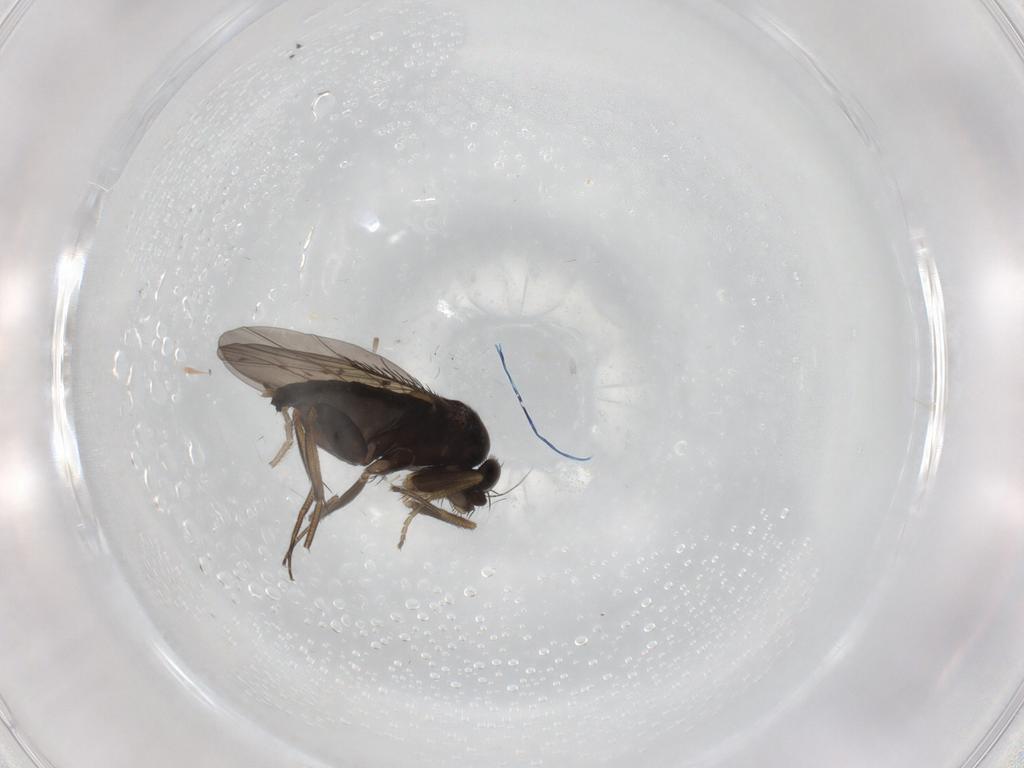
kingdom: Animalia
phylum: Arthropoda
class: Insecta
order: Diptera
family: Phoridae
